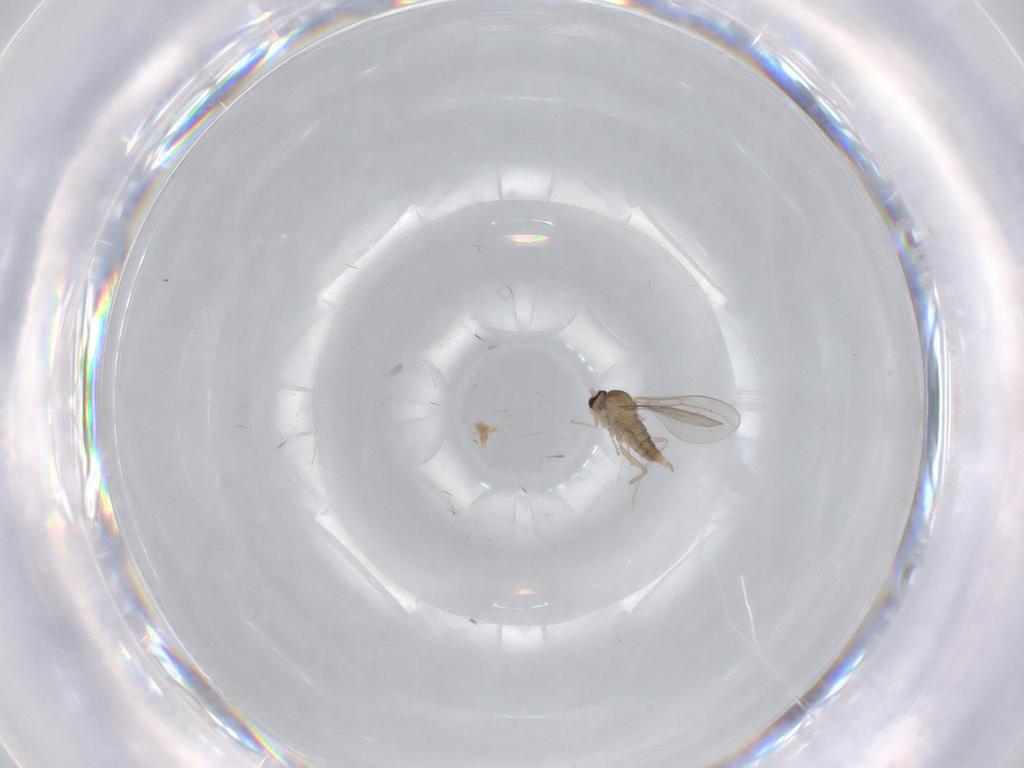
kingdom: Animalia
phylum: Arthropoda
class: Insecta
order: Diptera
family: Cecidomyiidae
